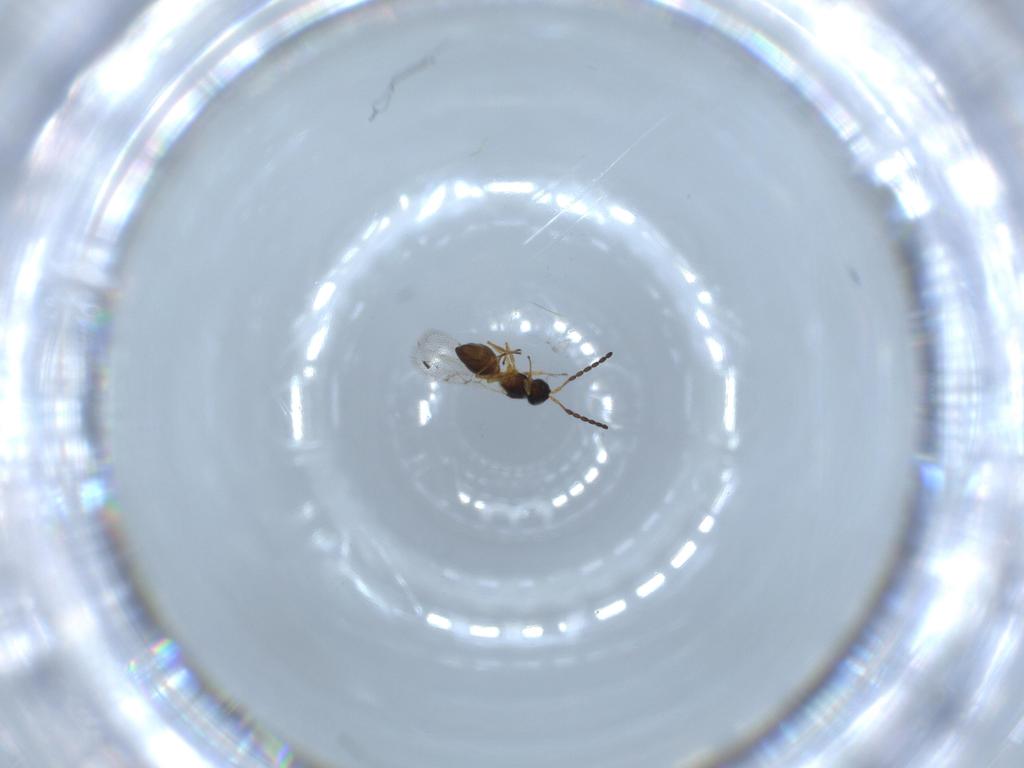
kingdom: Animalia
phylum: Arthropoda
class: Insecta
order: Hymenoptera
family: Figitidae
